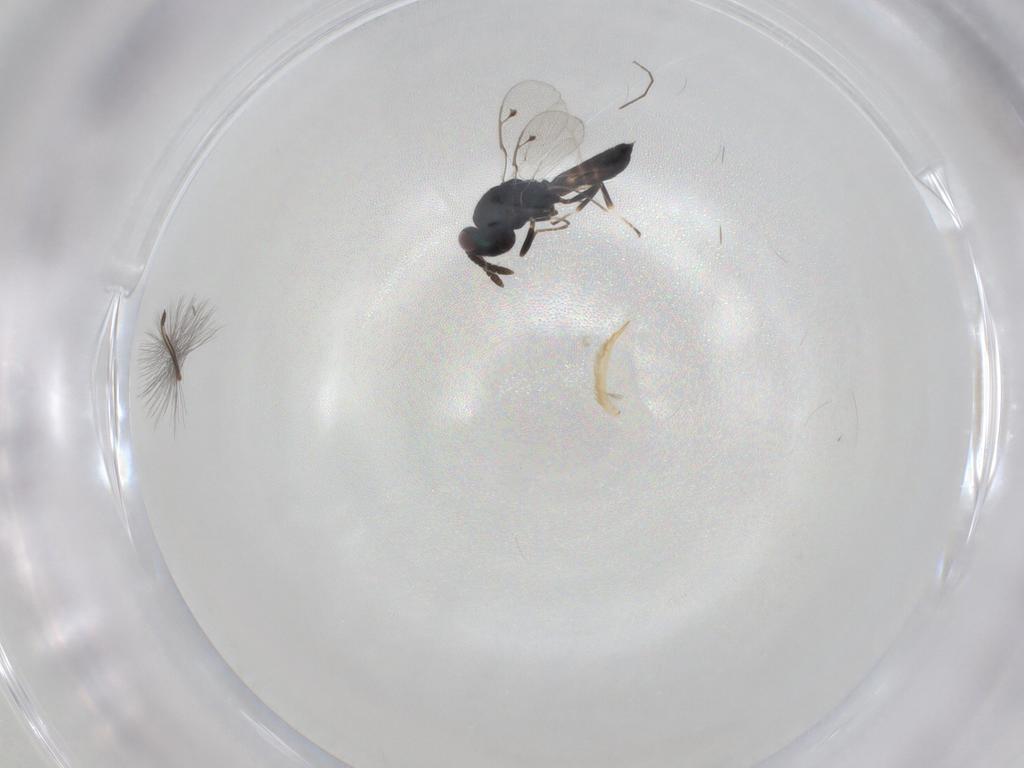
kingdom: Animalia
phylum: Arthropoda
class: Insecta
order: Hymenoptera
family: Pteromalidae
